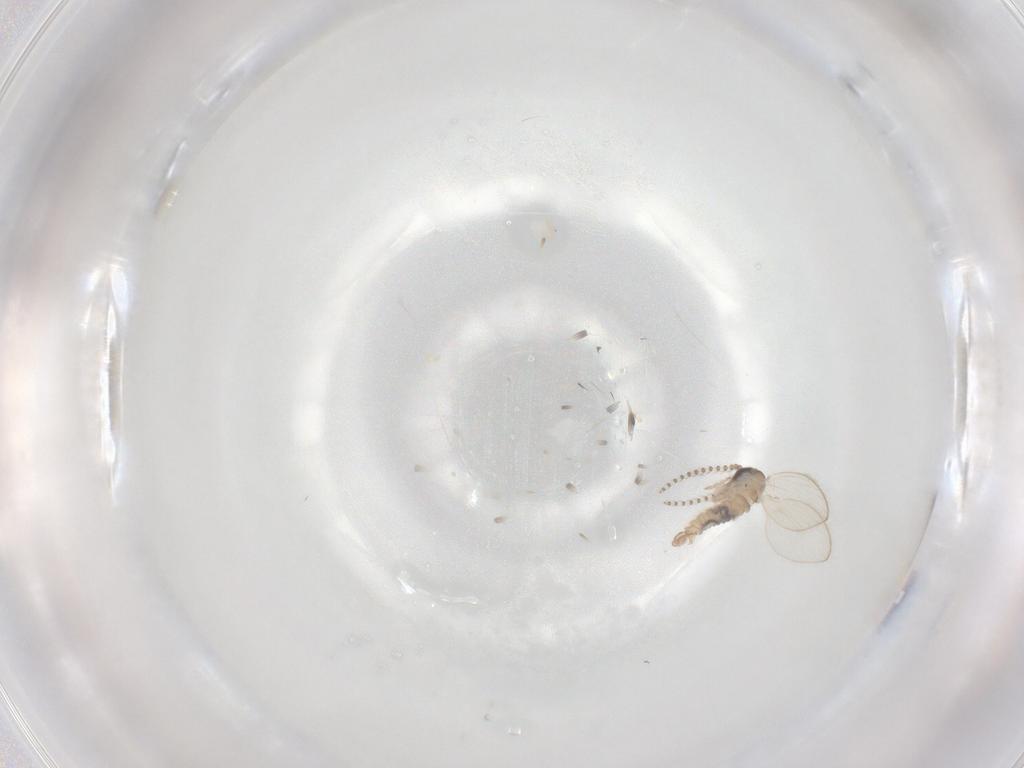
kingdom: Animalia
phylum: Arthropoda
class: Insecta
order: Diptera
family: Psychodidae
